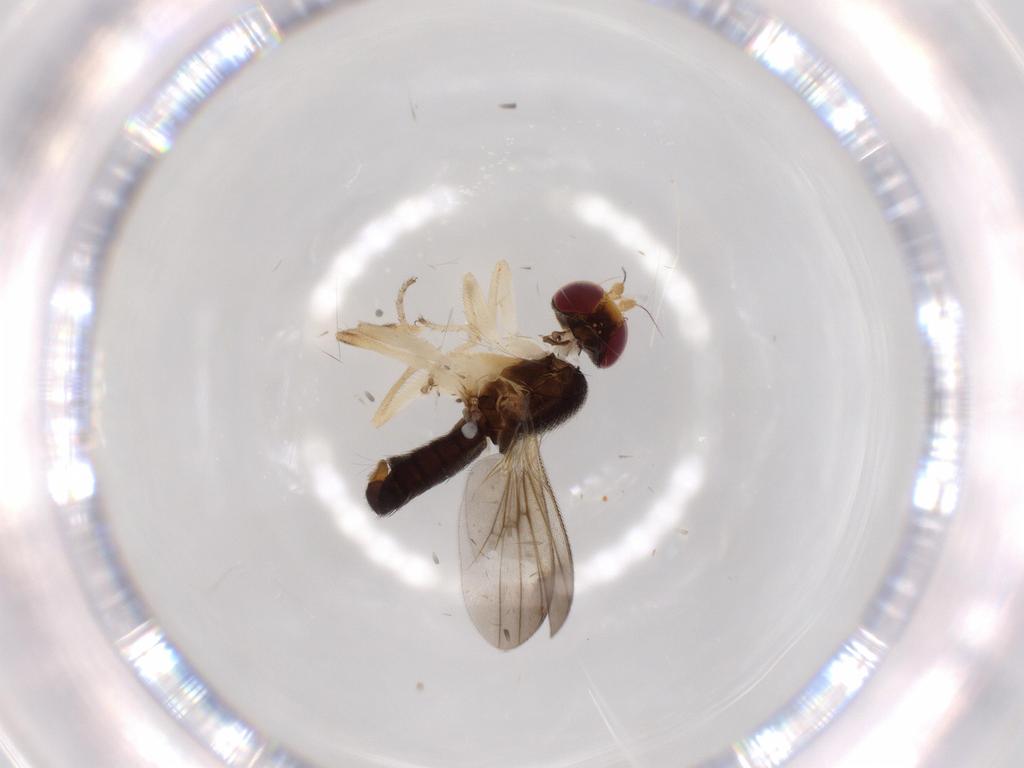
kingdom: Animalia
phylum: Arthropoda
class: Insecta
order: Diptera
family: Clusiidae
